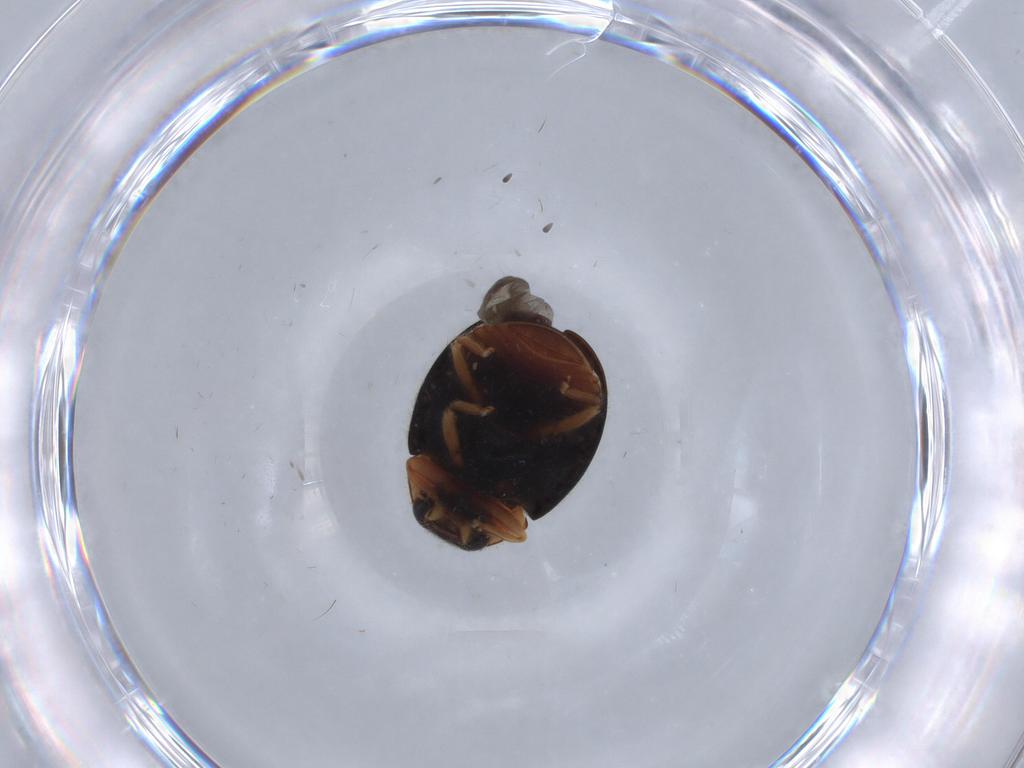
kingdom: Animalia
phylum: Arthropoda
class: Insecta
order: Coleoptera
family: Coccinellidae
